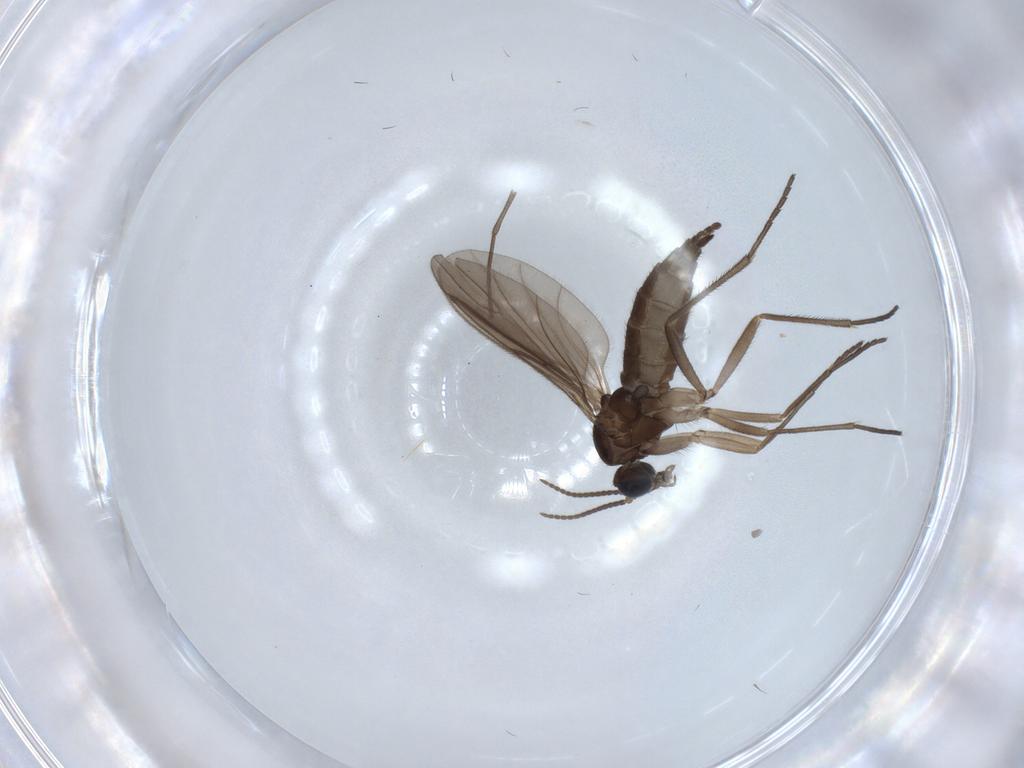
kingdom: Animalia
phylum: Arthropoda
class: Insecta
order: Diptera
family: Sciaridae
